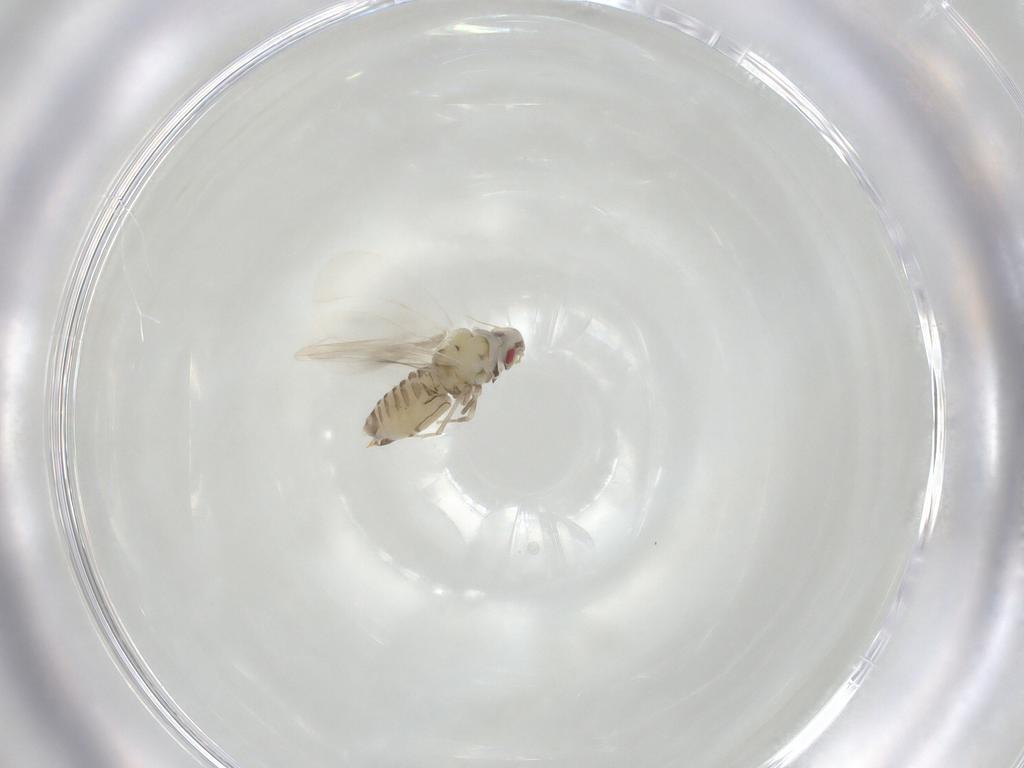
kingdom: Animalia
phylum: Arthropoda
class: Insecta
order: Hemiptera
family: Aleyrodidae
